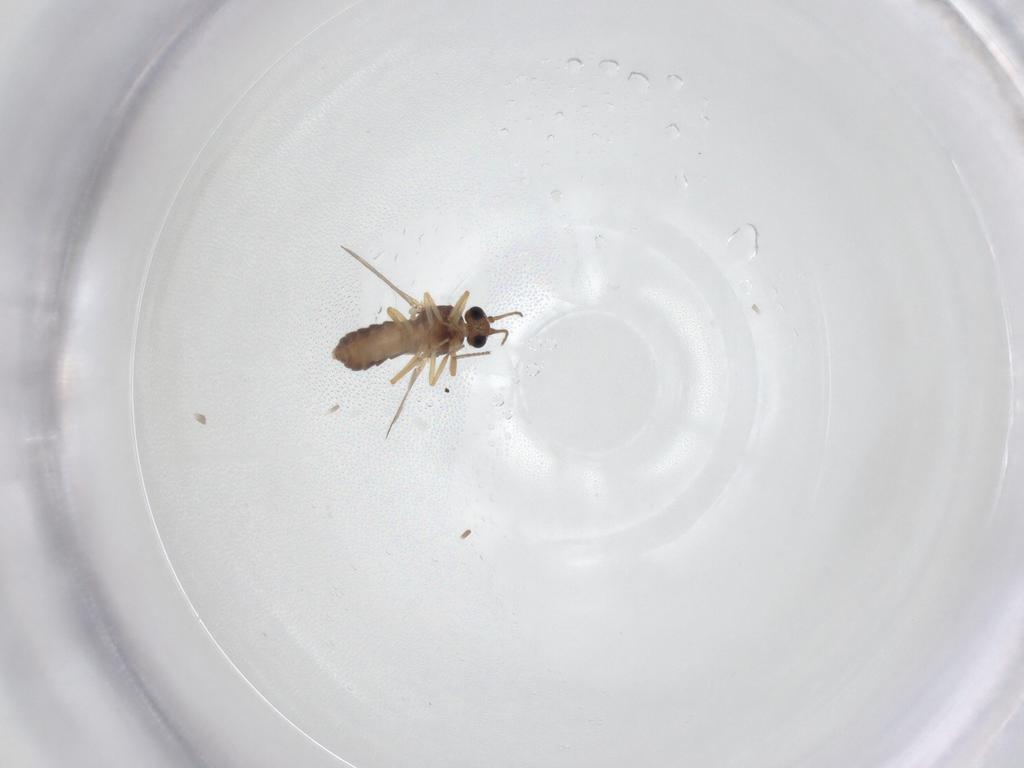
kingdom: Animalia
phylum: Arthropoda
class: Insecta
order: Diptera
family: Ceratopogonidae
